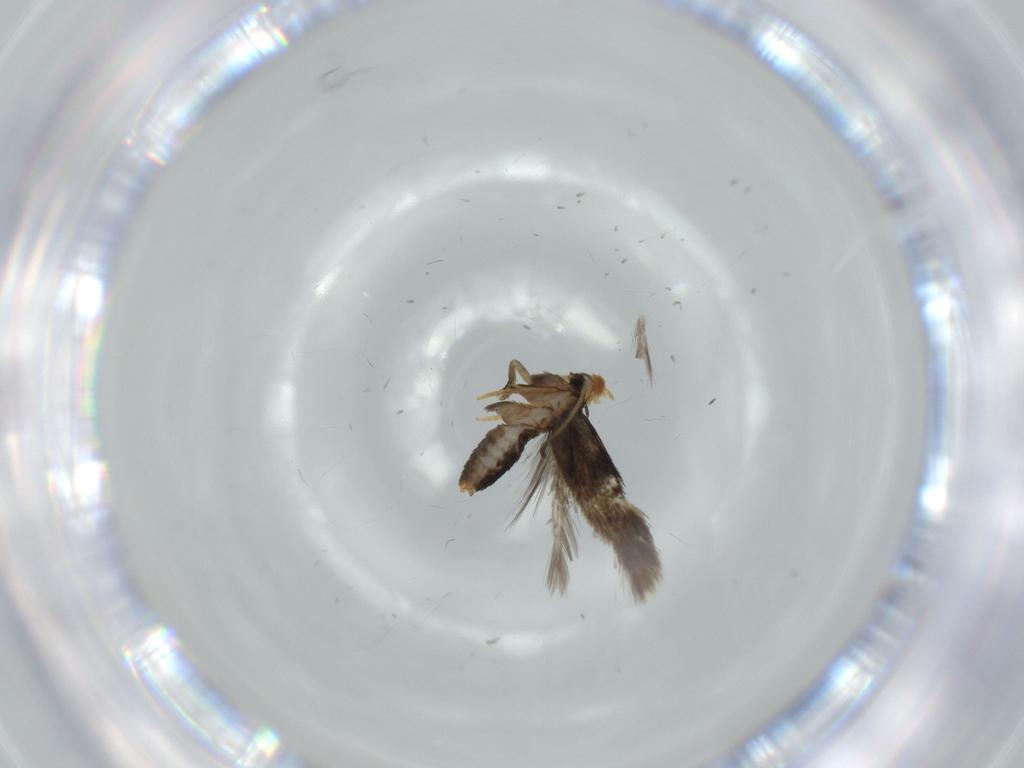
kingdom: Animalia
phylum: Arthropoda
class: Insecta
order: Lepidoptera
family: Nepticulidae
